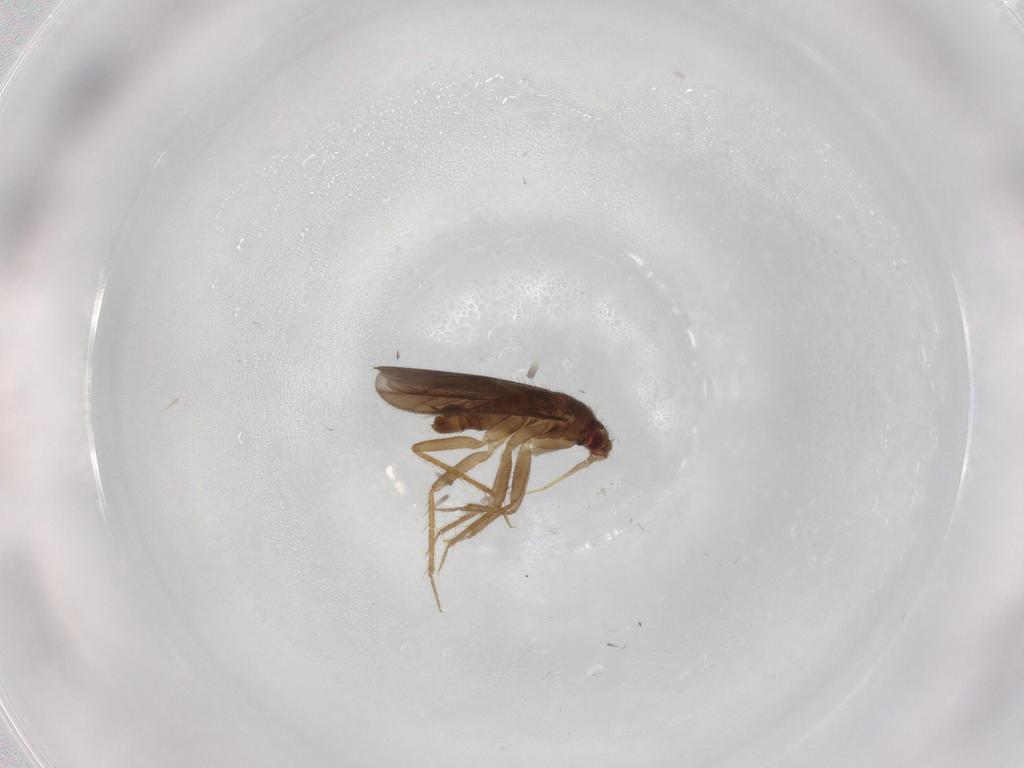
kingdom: Animalia
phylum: Arthropoda
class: Insecta
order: Hemiptera
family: Ceratocombidae
